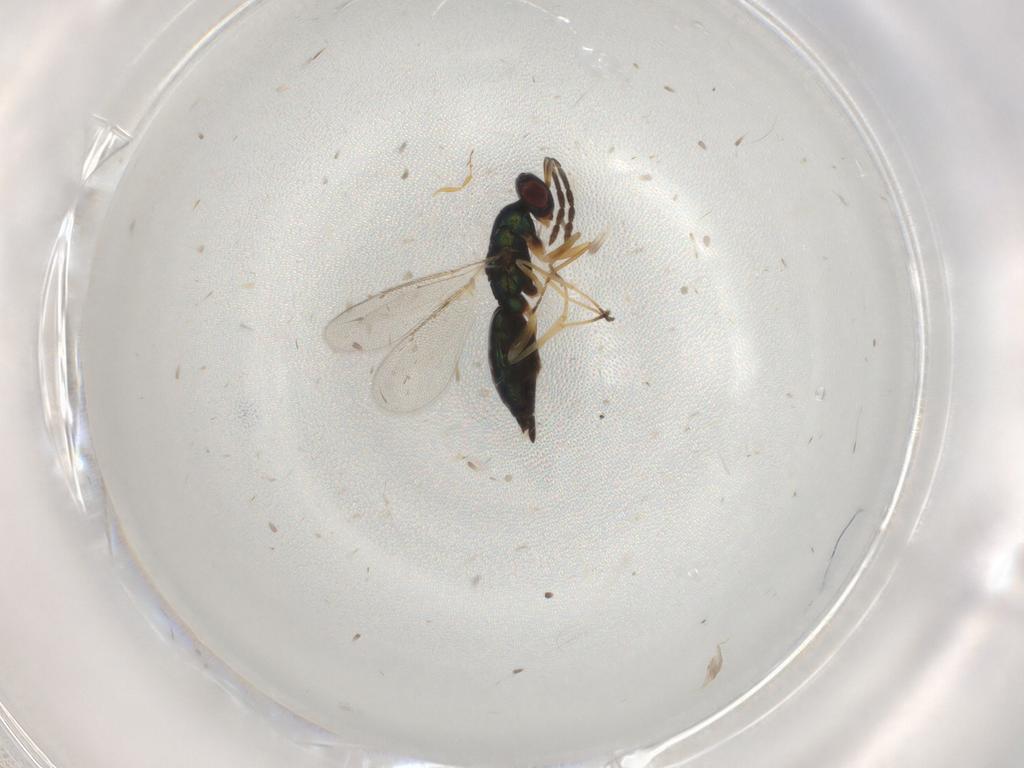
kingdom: Animalia
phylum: Arthropoda
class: Insecta
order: Hymenoptera
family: Eulophidae
